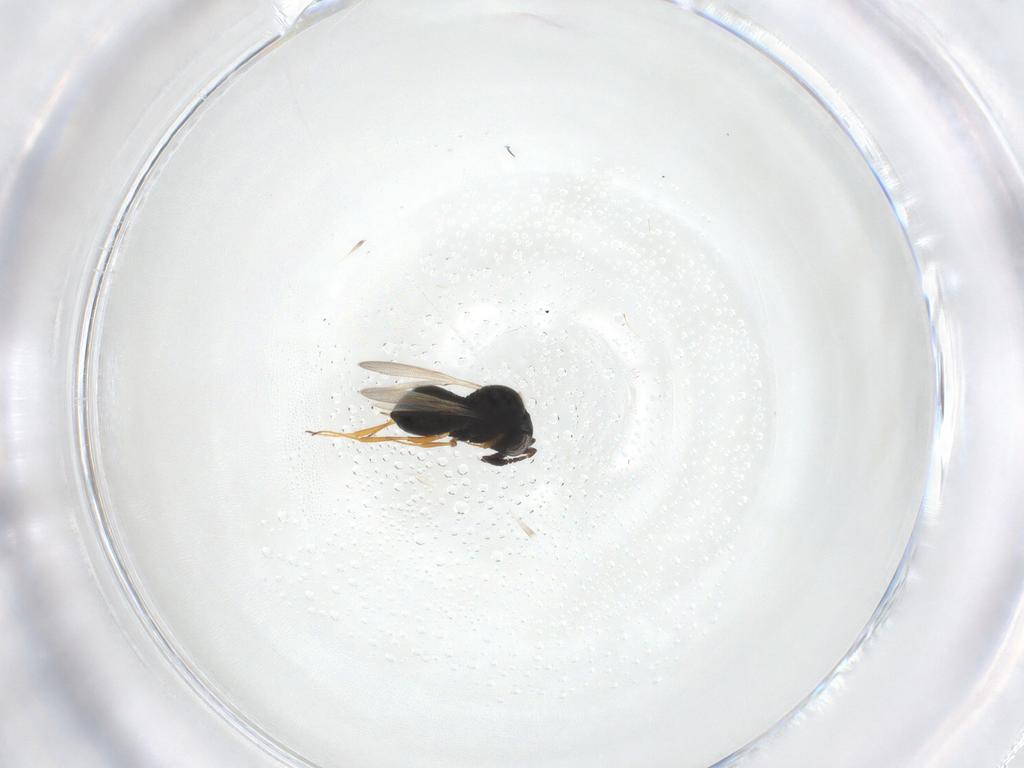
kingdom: Animalia
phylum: Arthropoda
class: Insecta
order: Hymenoptera
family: Scelionidae
